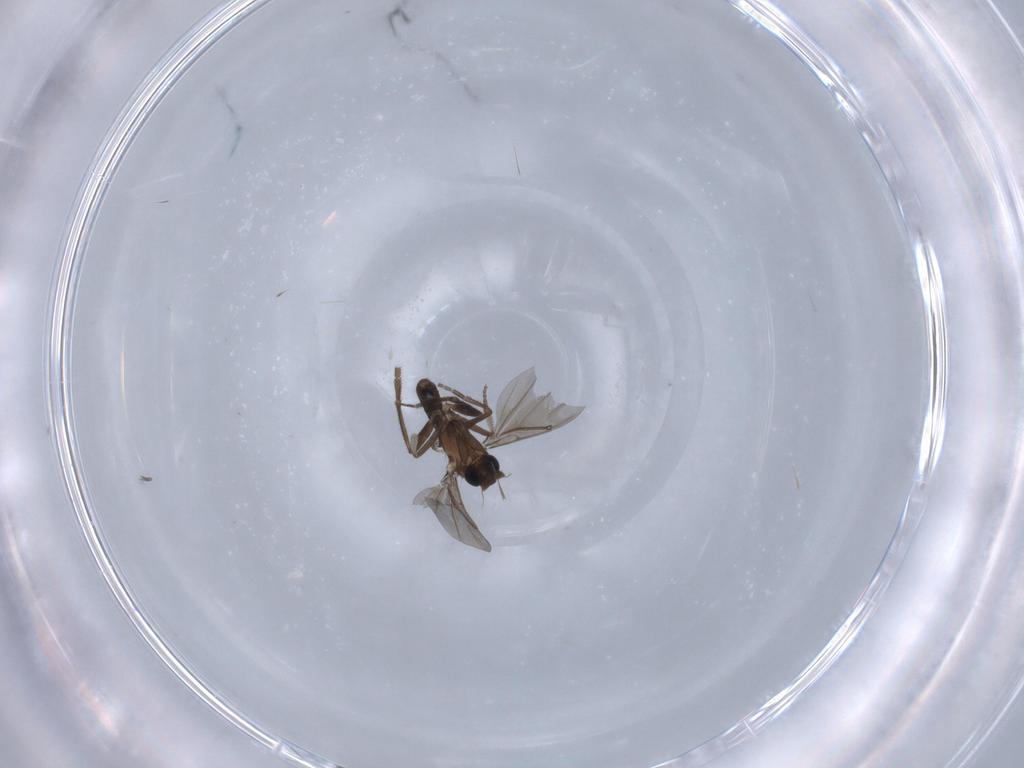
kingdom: Animalia
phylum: Arthropoda
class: Insecta
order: Diptera
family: Phoridae
